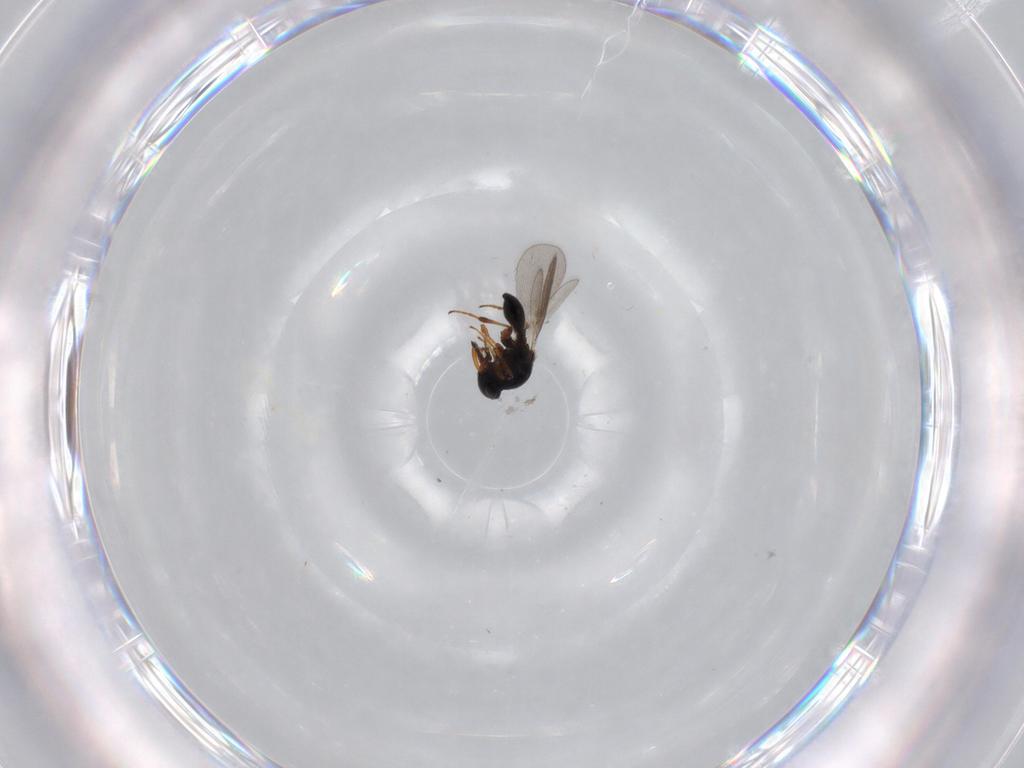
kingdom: Animalia
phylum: Arthropoda
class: Insecta
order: Hymenoptera
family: Platygastridae
